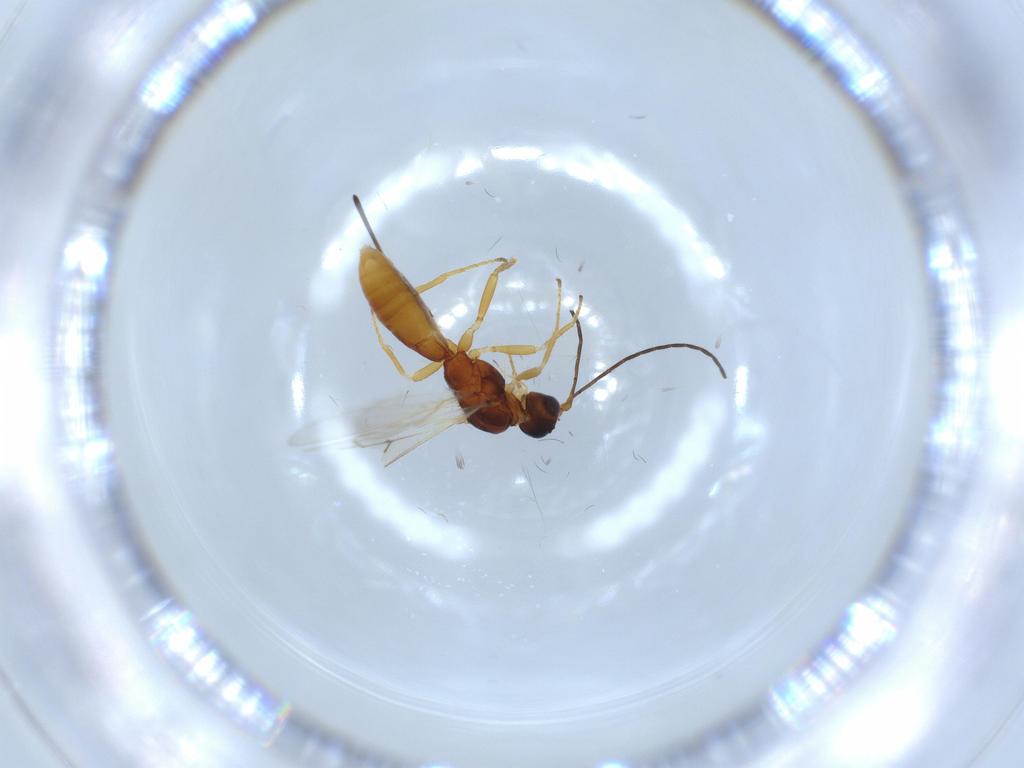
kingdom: Animalia
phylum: Arthropoda
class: Insecta
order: Hymenoptera
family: Braconidae
